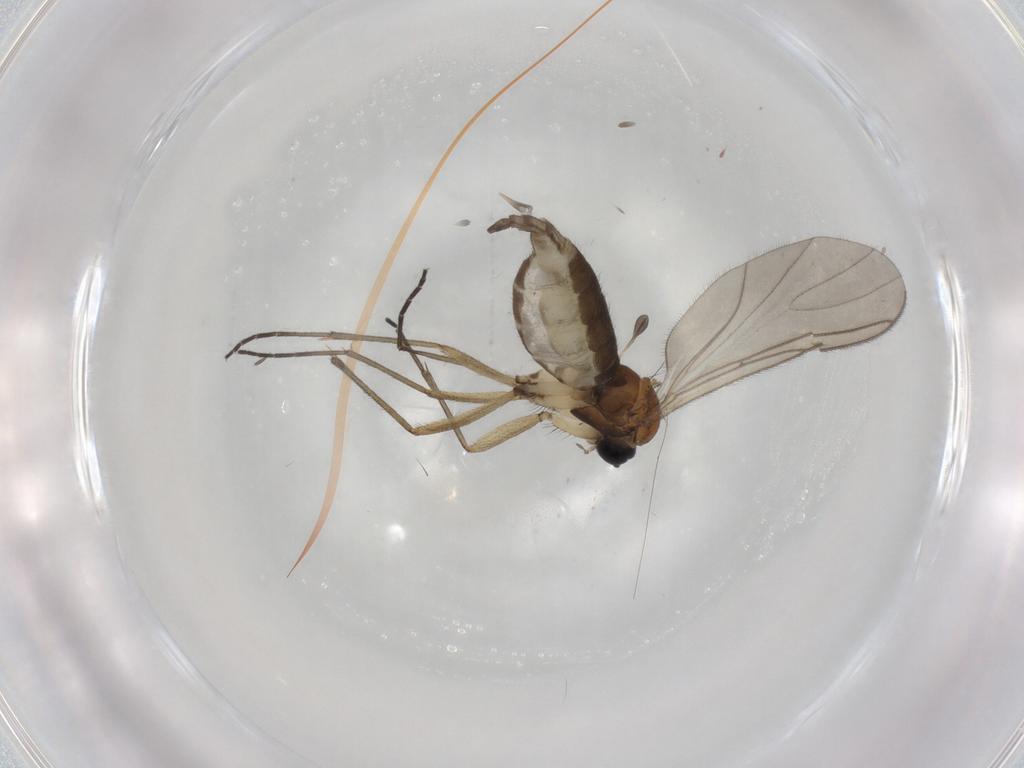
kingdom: Animalia
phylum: Arthropoda
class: Insecta
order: Diptera
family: Sciaridae
